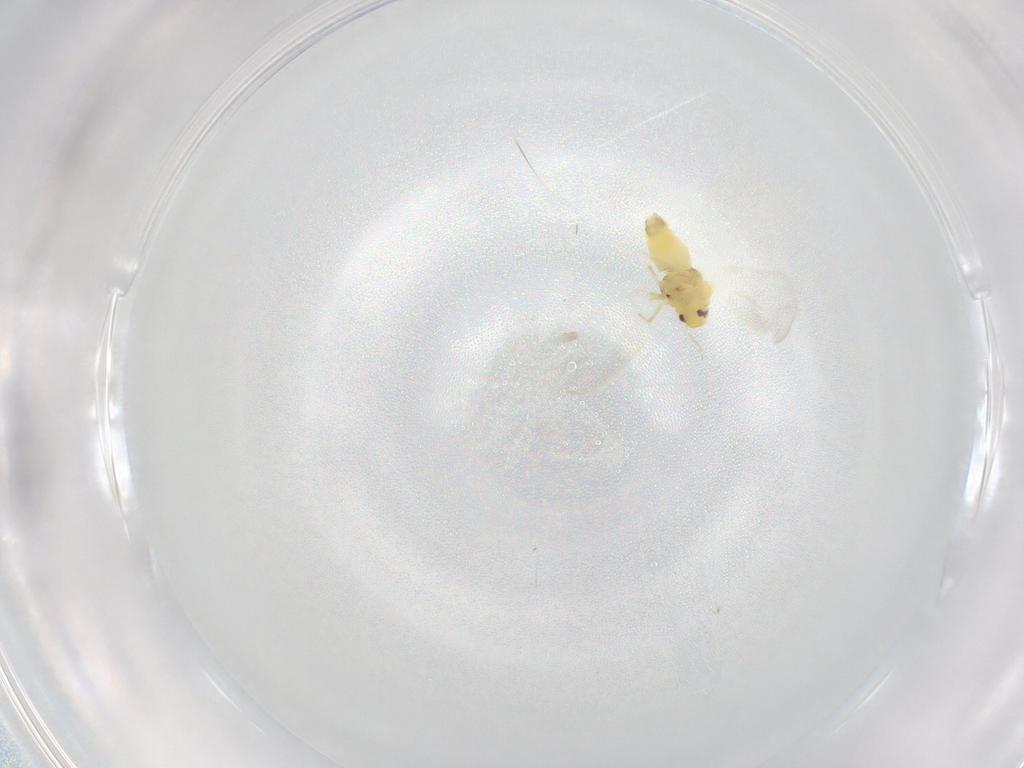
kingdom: Animalia
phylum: Arthropoda
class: Insecta
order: Hemiptera
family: Aleyrodidae
